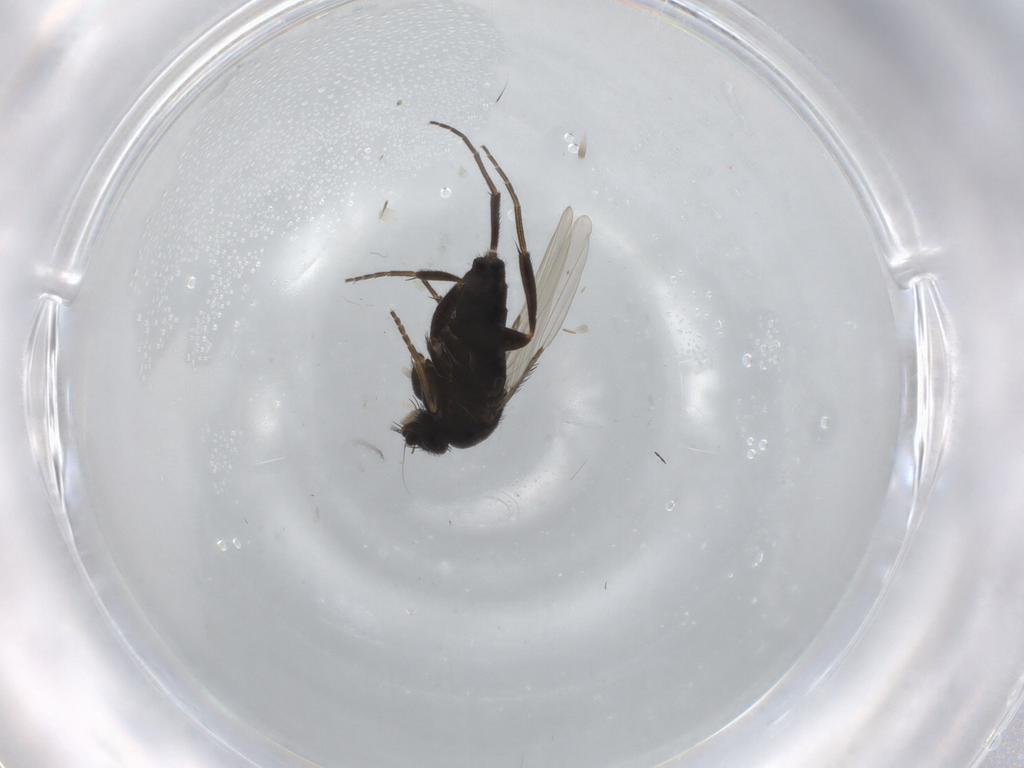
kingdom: Animalia
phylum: Arthropoda
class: Insecta
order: Diptera
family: Phoridae
